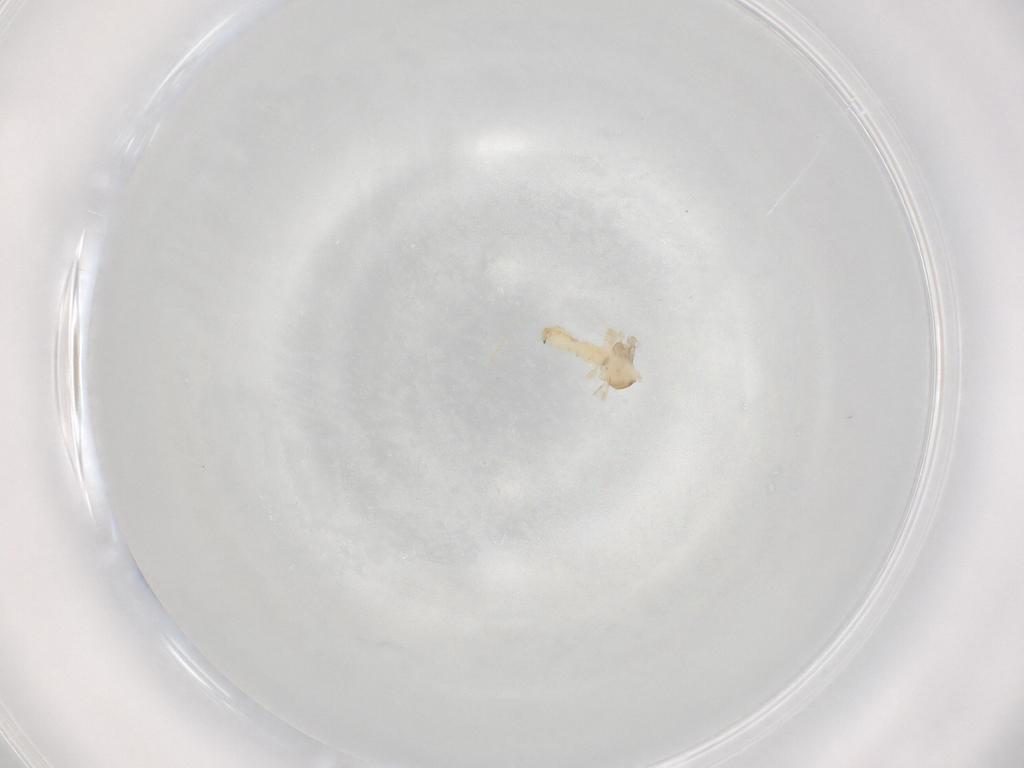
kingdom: Animalia
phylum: Arthropoda
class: Insecta
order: Diptera
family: Cecidomyiidae
